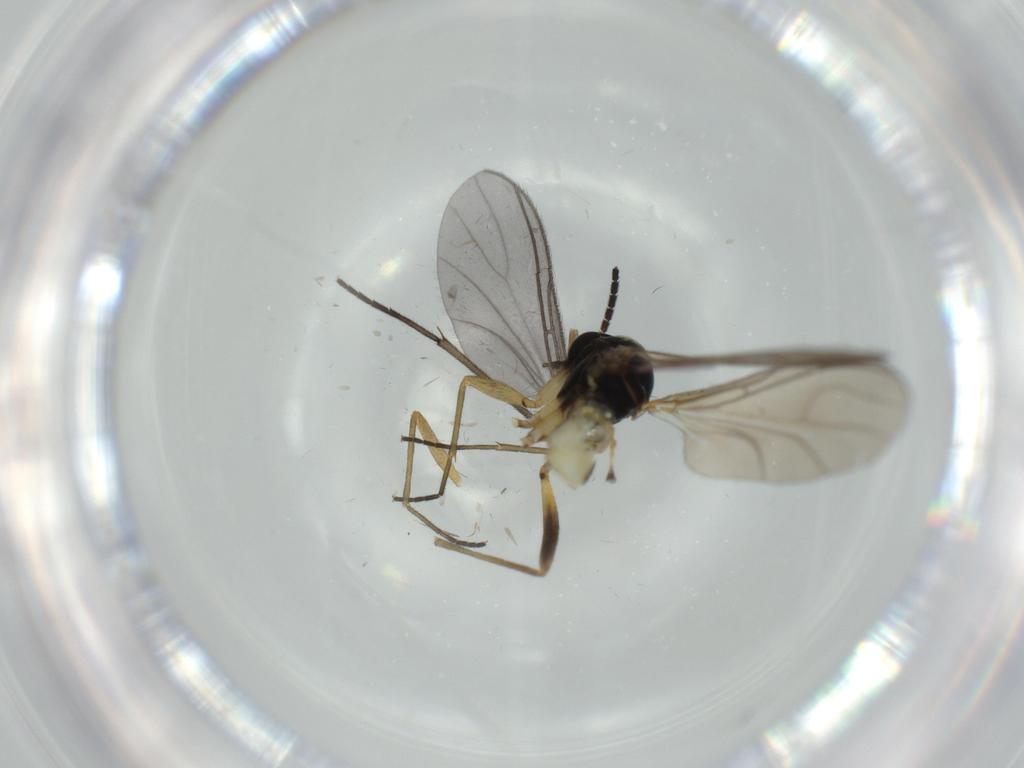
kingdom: Animalia
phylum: Arthropoda
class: Insecta
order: Diptera
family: Sciaridae
